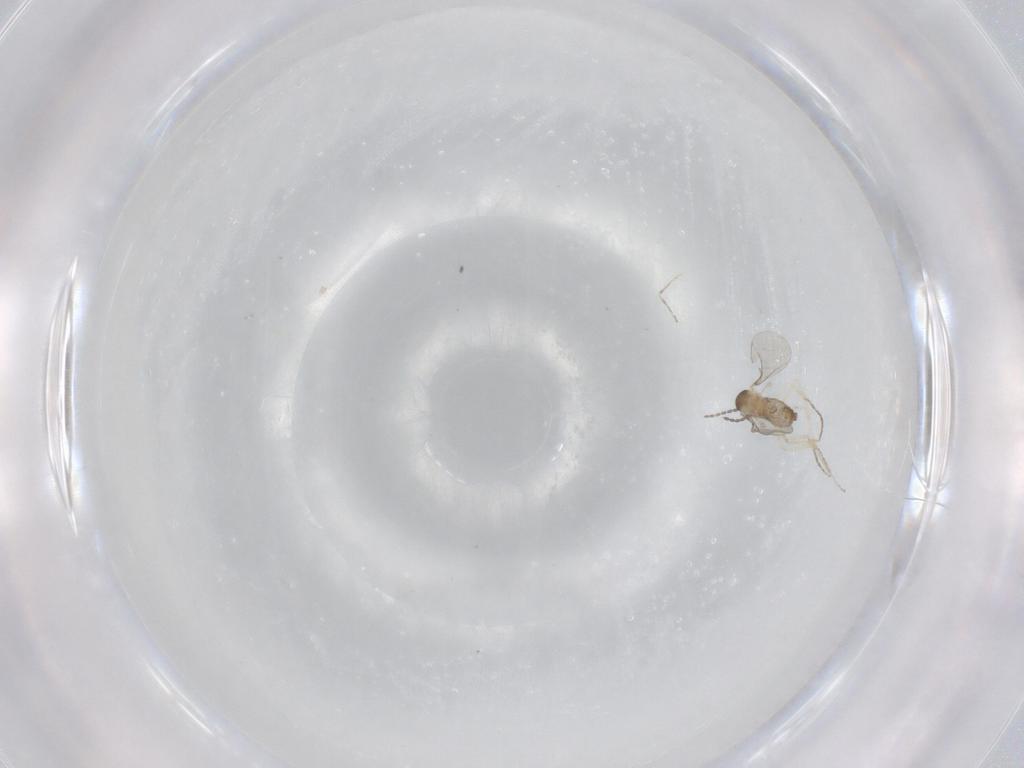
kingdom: Animalia
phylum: Arthropoda
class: Insecta
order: Diptera
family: Cecidomyiidae
